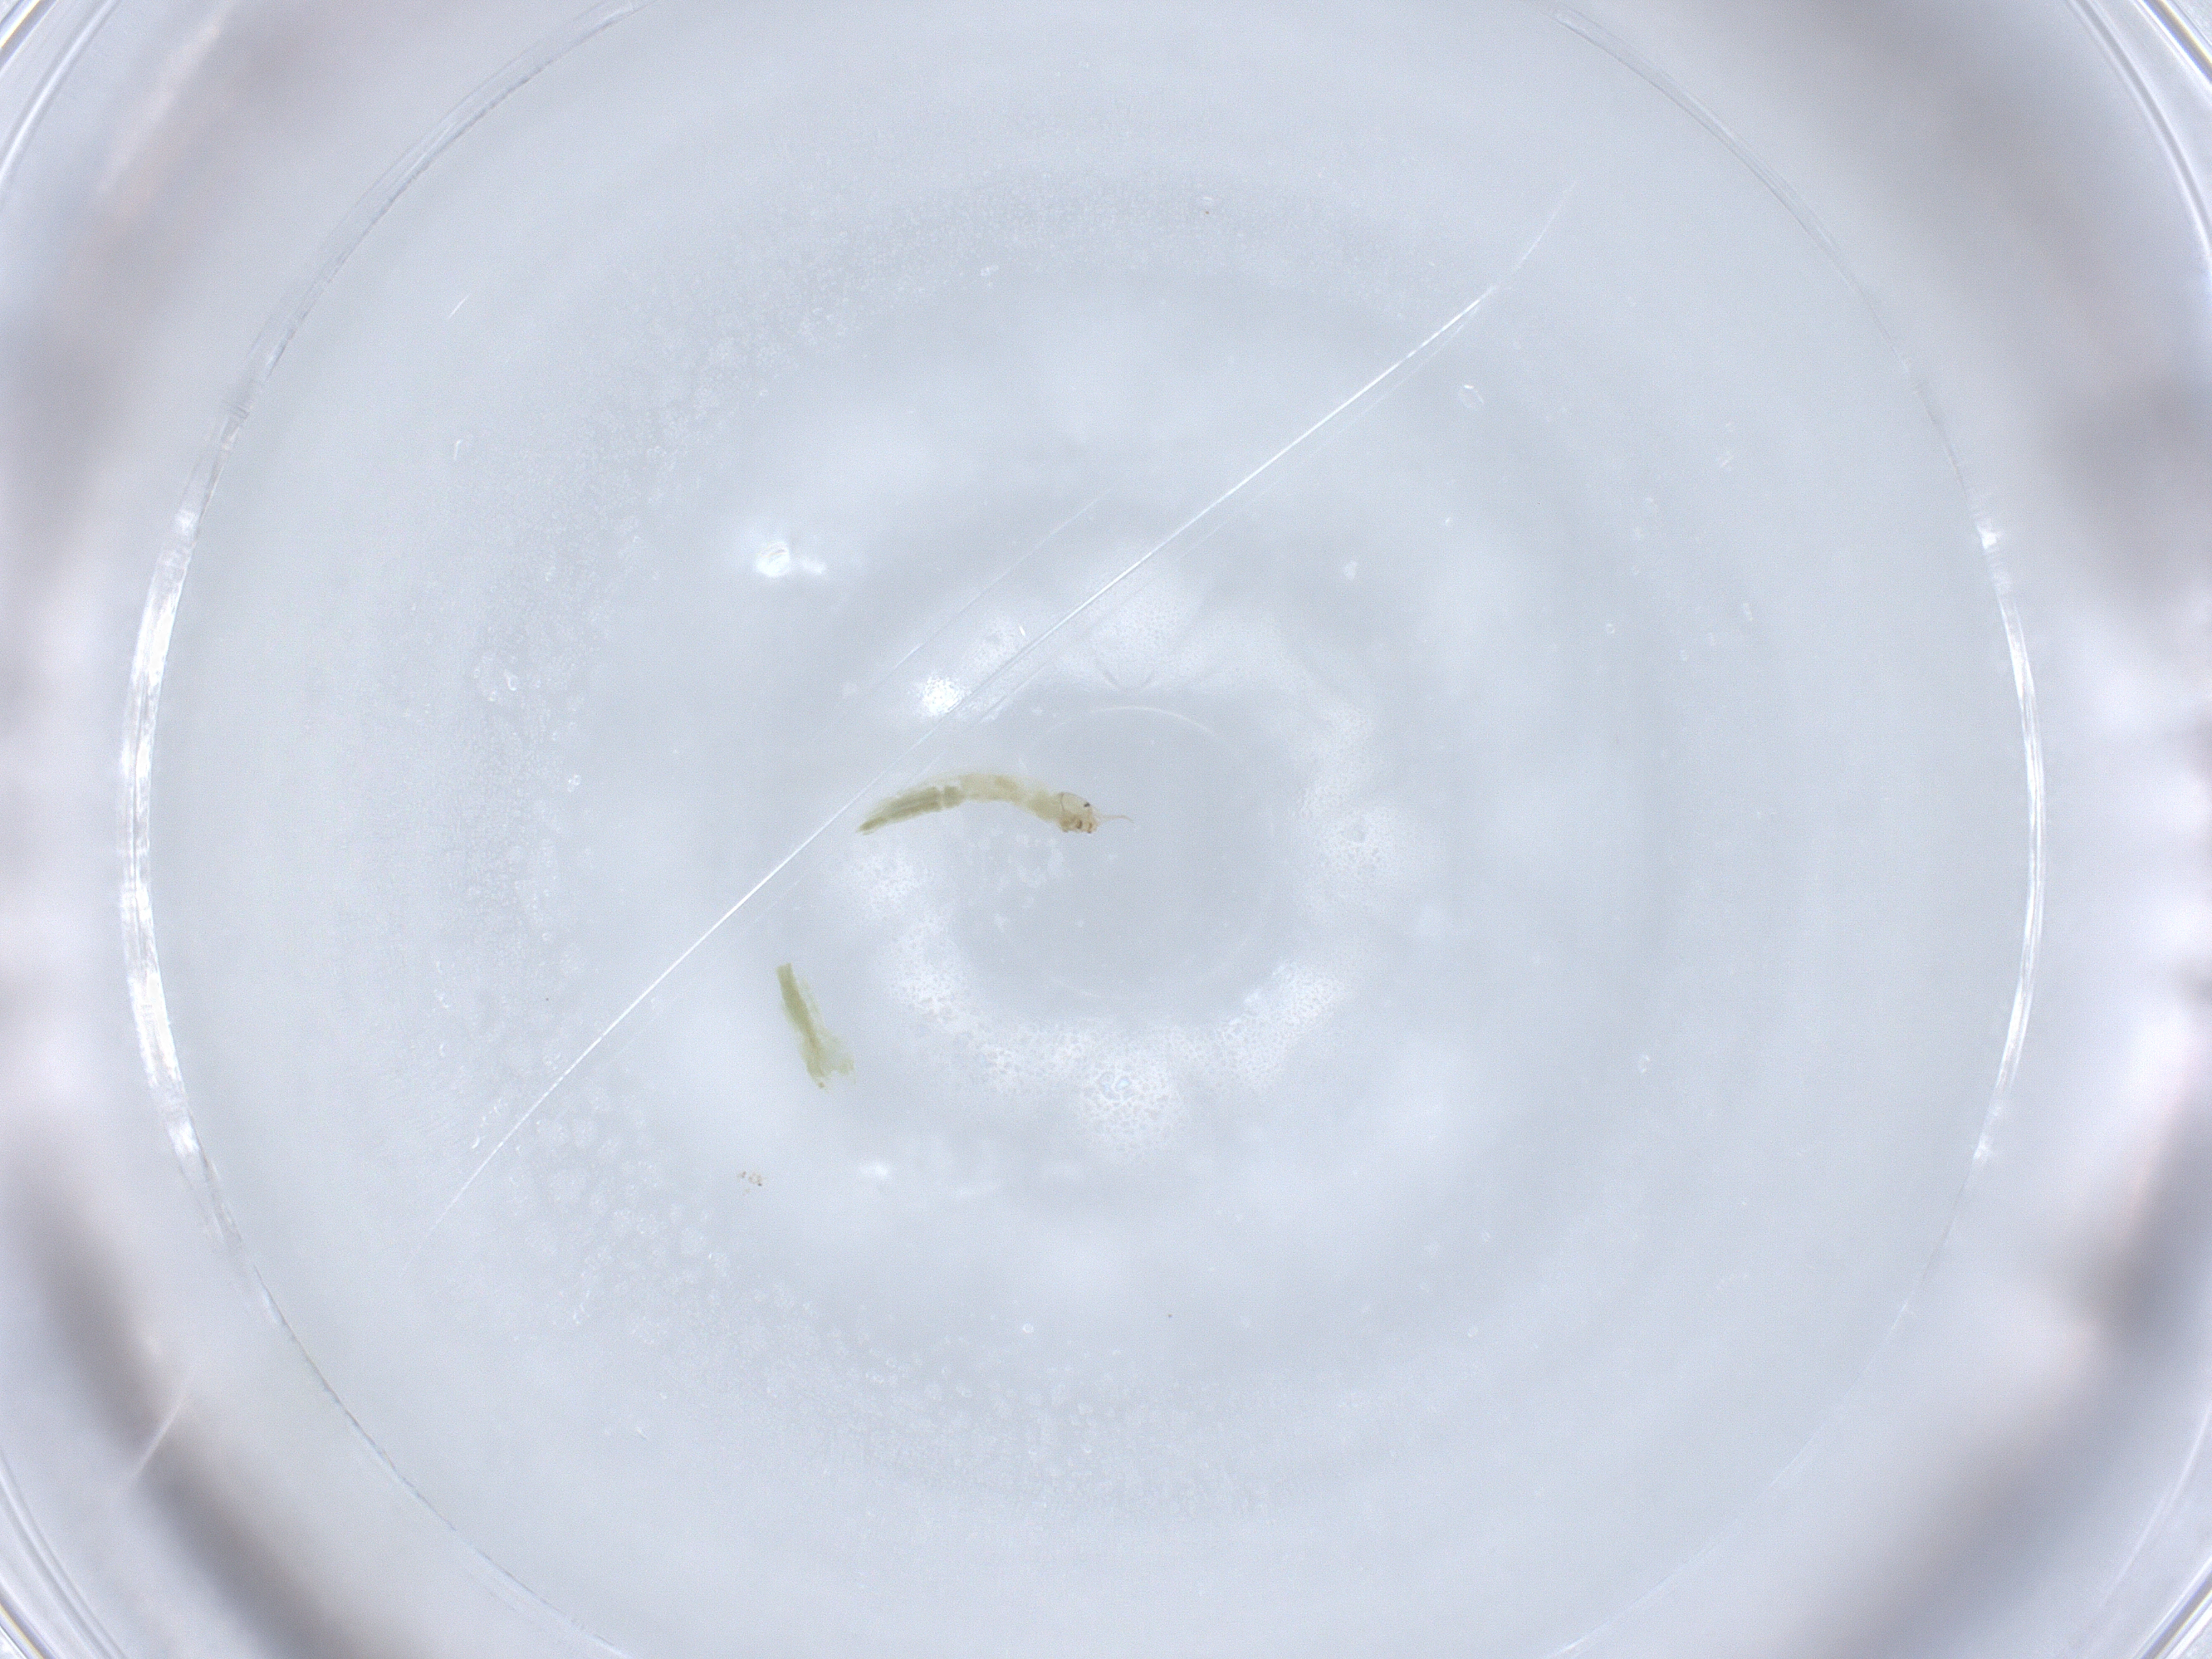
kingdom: Animalia
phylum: Arthropoda
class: Insecta
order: Diptera
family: Chironomidae
